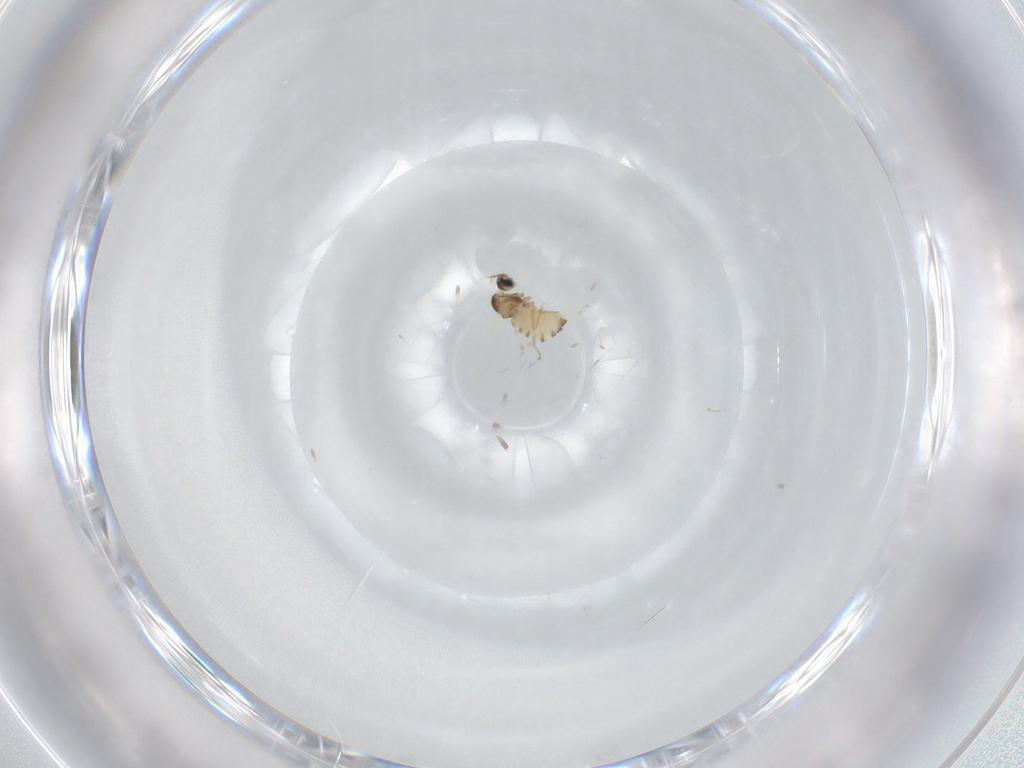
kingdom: Animalia
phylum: Arthropoda
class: Insecta
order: Diptera
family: Cecidomyiidae
